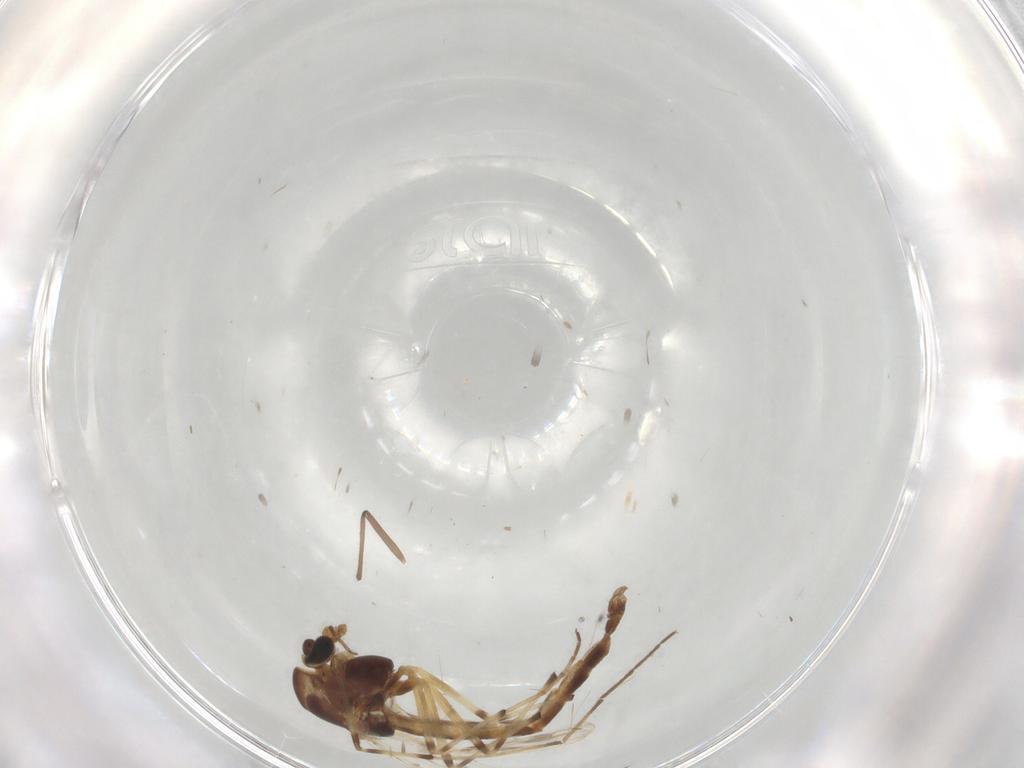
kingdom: Animalia
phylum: Arthropoda
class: Insecta
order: Diptera
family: Chironomidae
